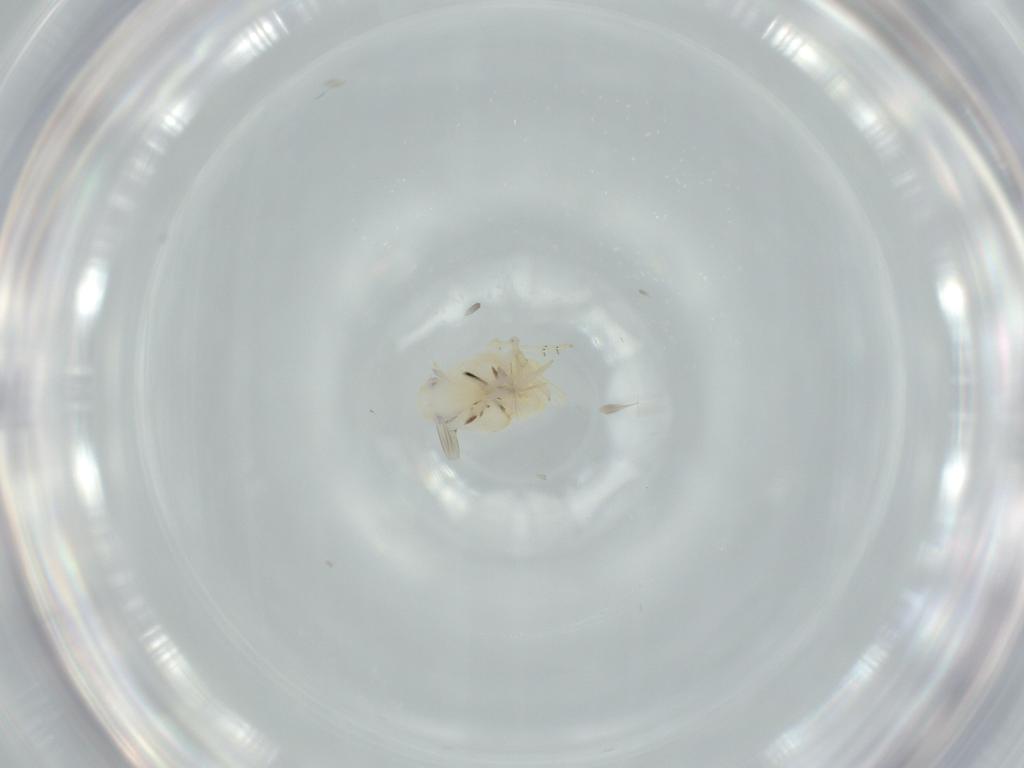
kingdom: Animalia
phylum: Arthropoda
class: Insecta
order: Hemiptera
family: Flatidae
